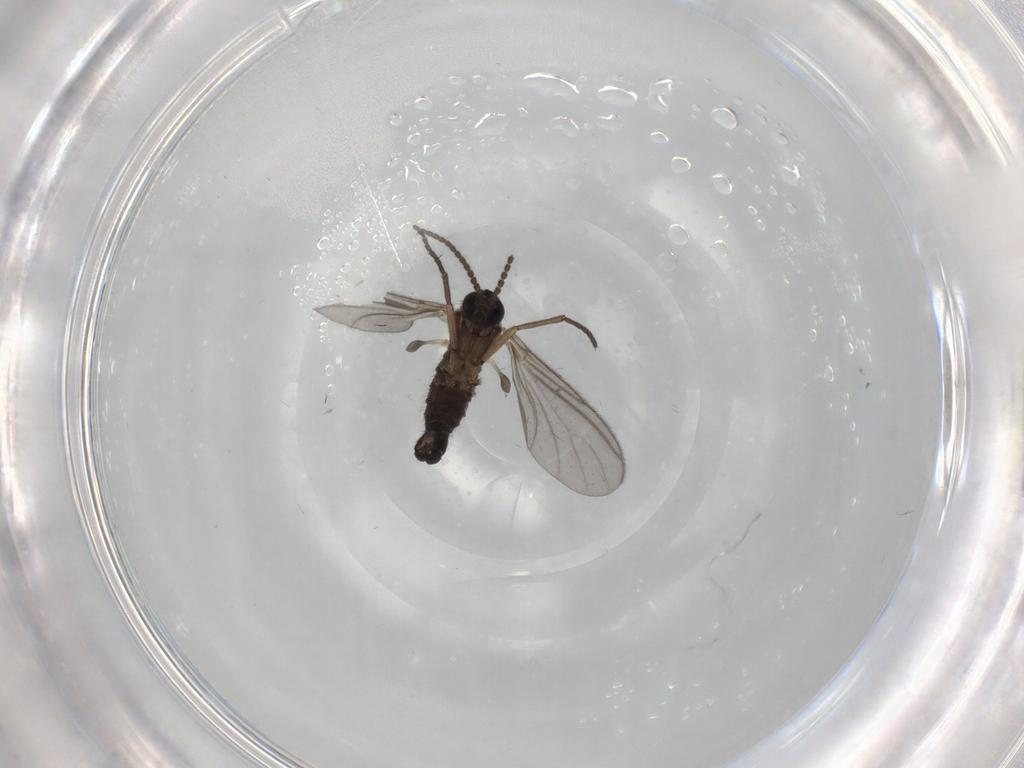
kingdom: Animalia
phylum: Arthropoda
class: Insecta
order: Diptera
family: Sciaridae
